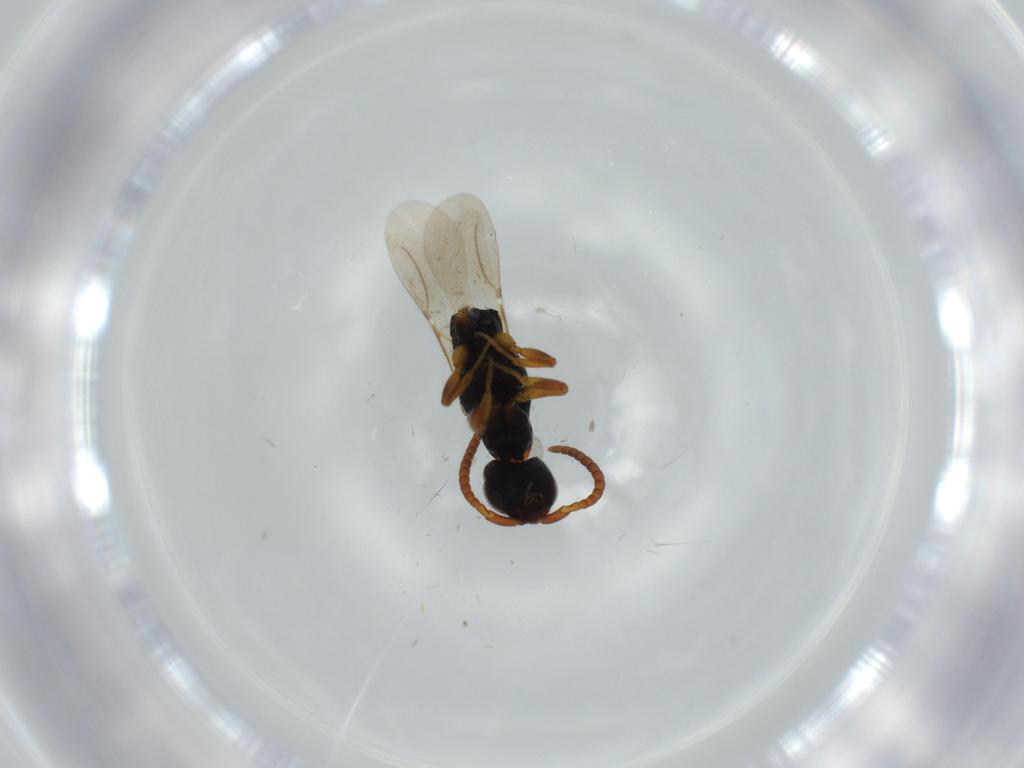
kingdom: Animalia
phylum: Arthropoda
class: Insecta
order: Hymenoptera
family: Bethylidae
